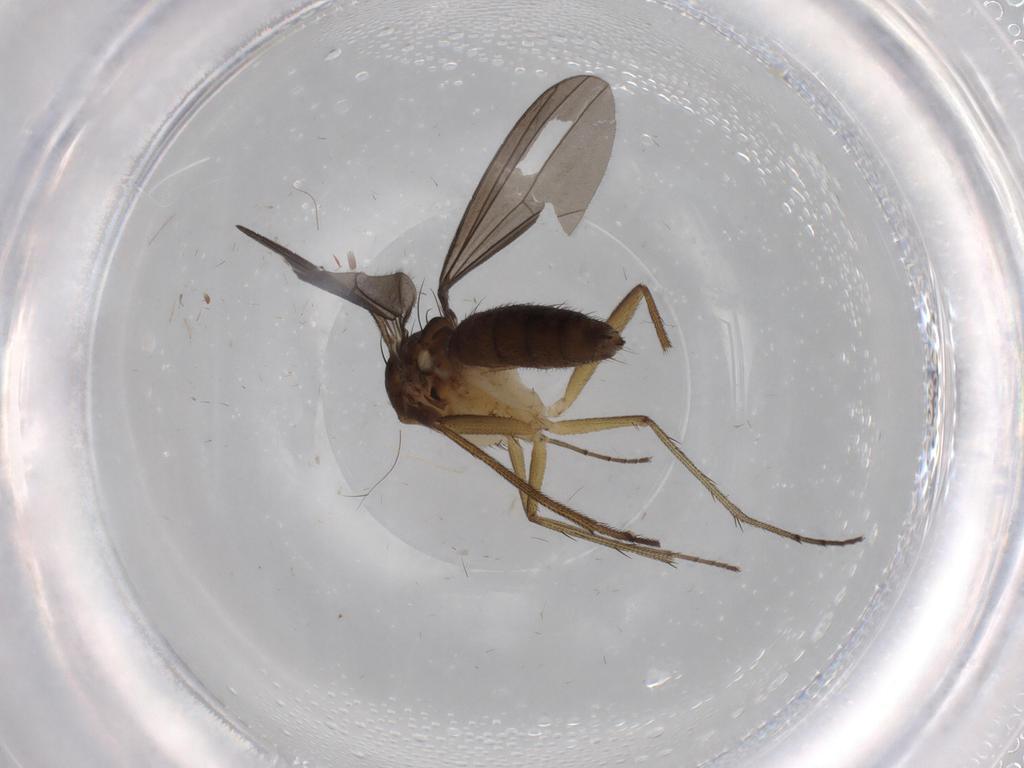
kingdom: Animalia
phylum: Arthropoda
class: Insecta
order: Diptera
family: Dolichopodidae
